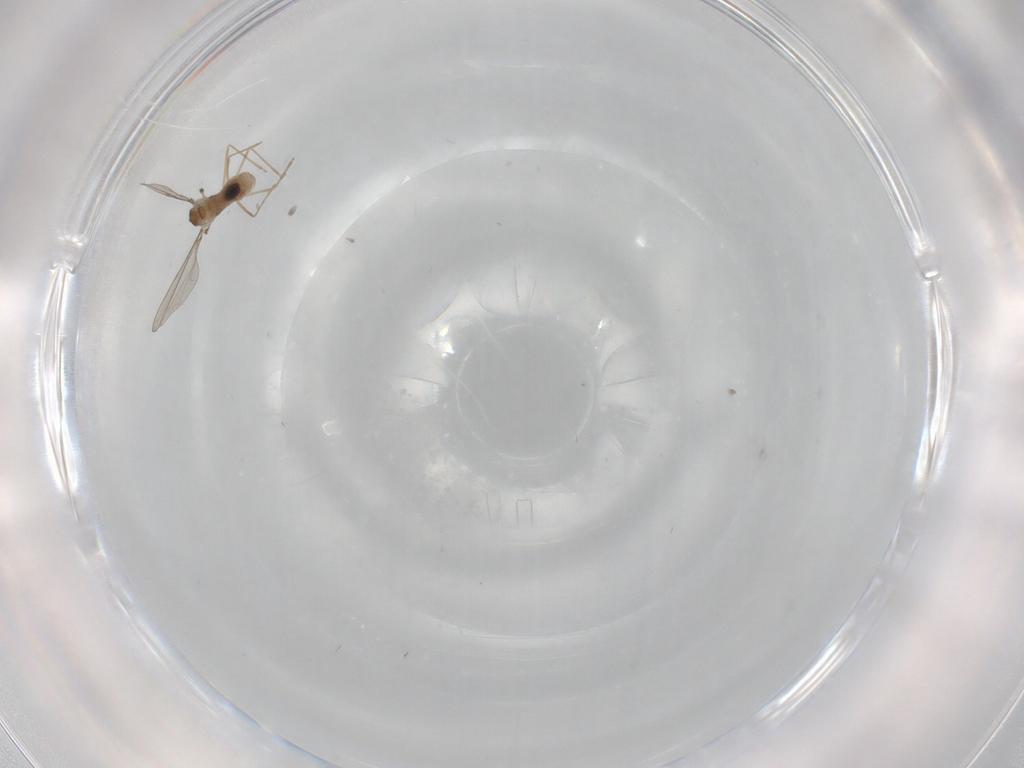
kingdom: Animalia
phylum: Arthropoda
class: Insecta
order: Diptera
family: Chironomidae
